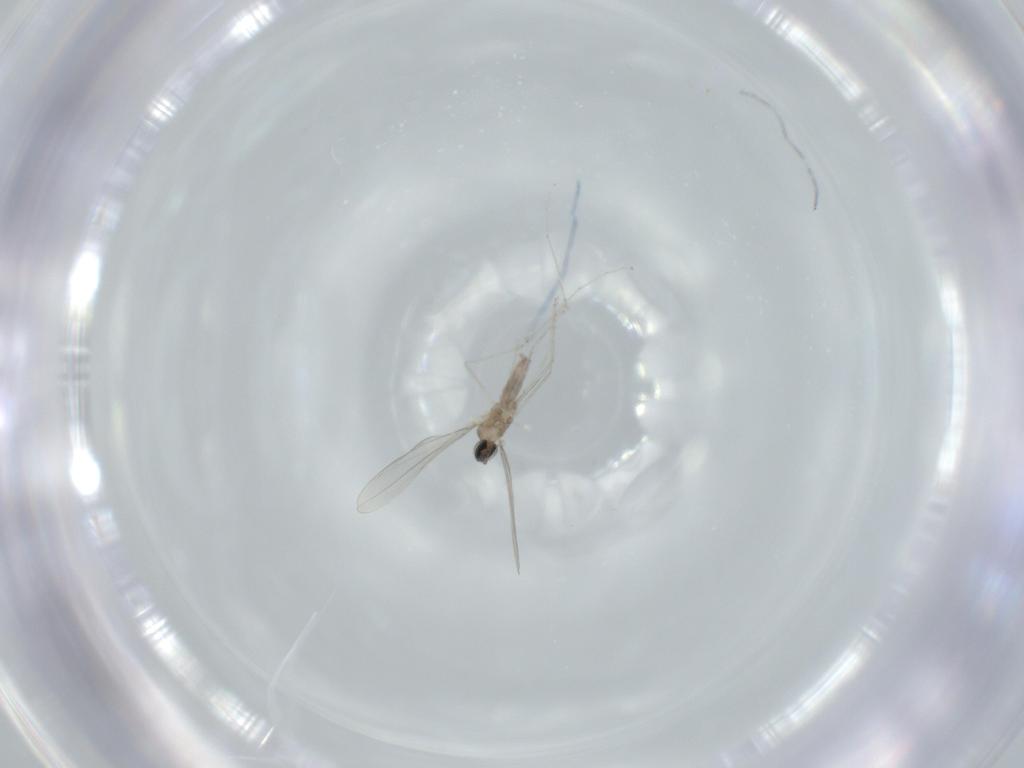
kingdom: Animalia
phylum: Arthropoda
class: Insecta
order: Diptera
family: Cecidomyiidae
